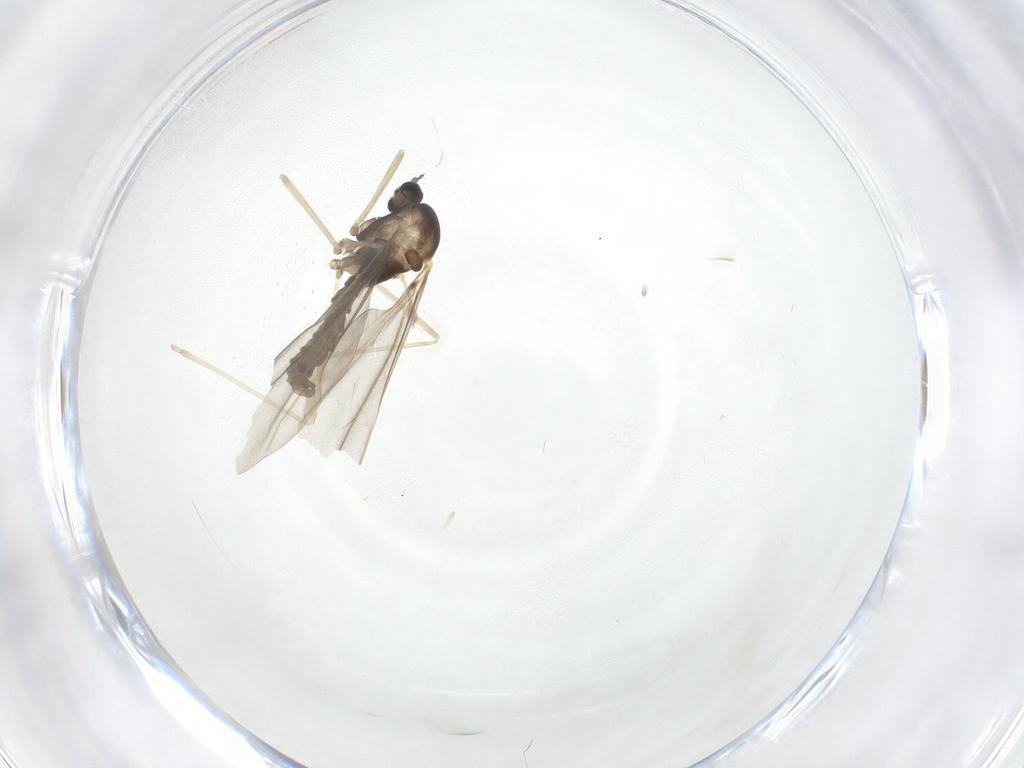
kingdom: Animalia
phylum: Arthropoda
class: Insecta
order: Diptera
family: Cecidomyiidae
